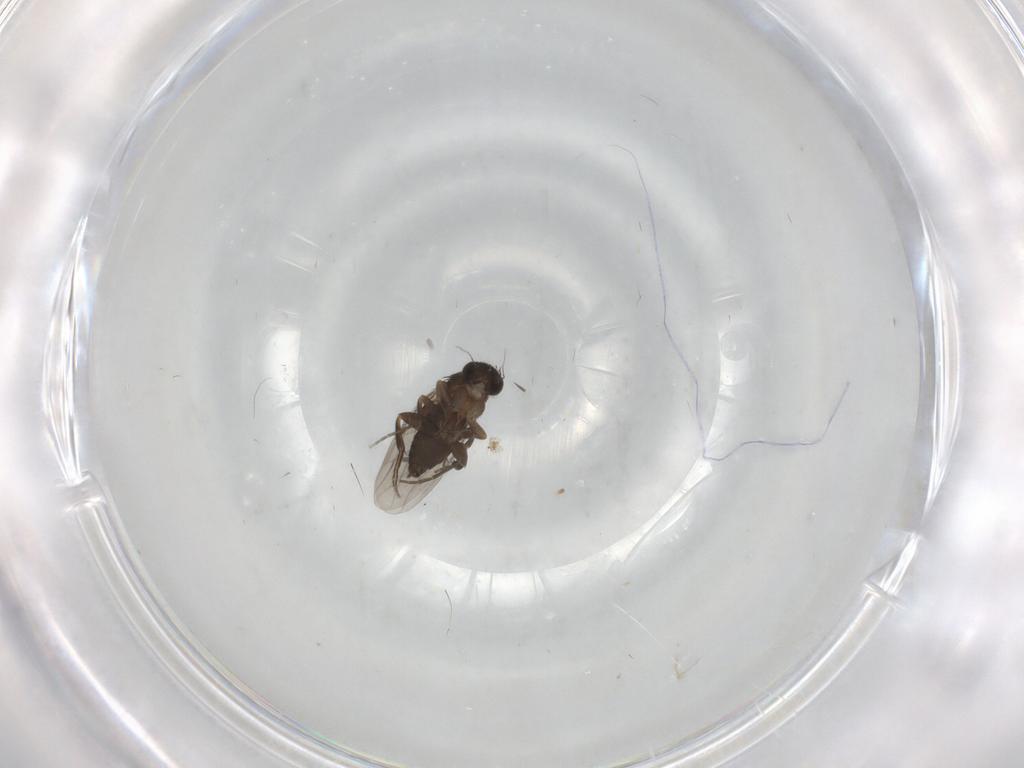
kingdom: Animalia
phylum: Arthropoda
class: Insecta
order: Diptera
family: Phoridae
